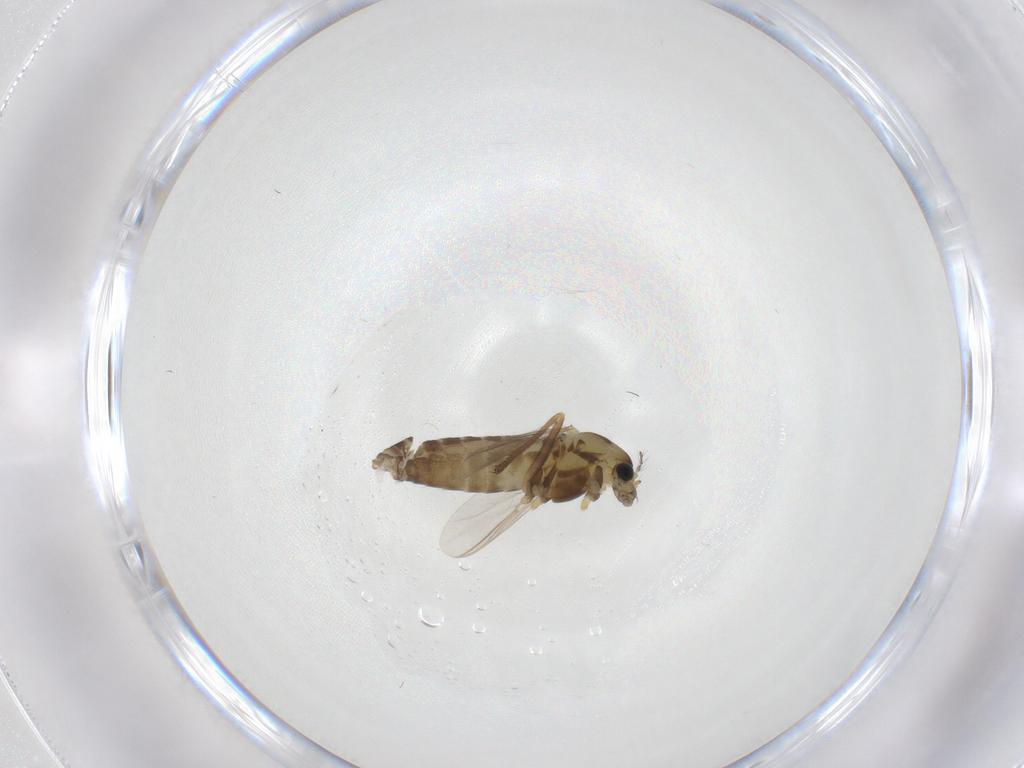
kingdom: Animalia
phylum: Arthropoda
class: Insecta
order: Diptera
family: Chironomidae
